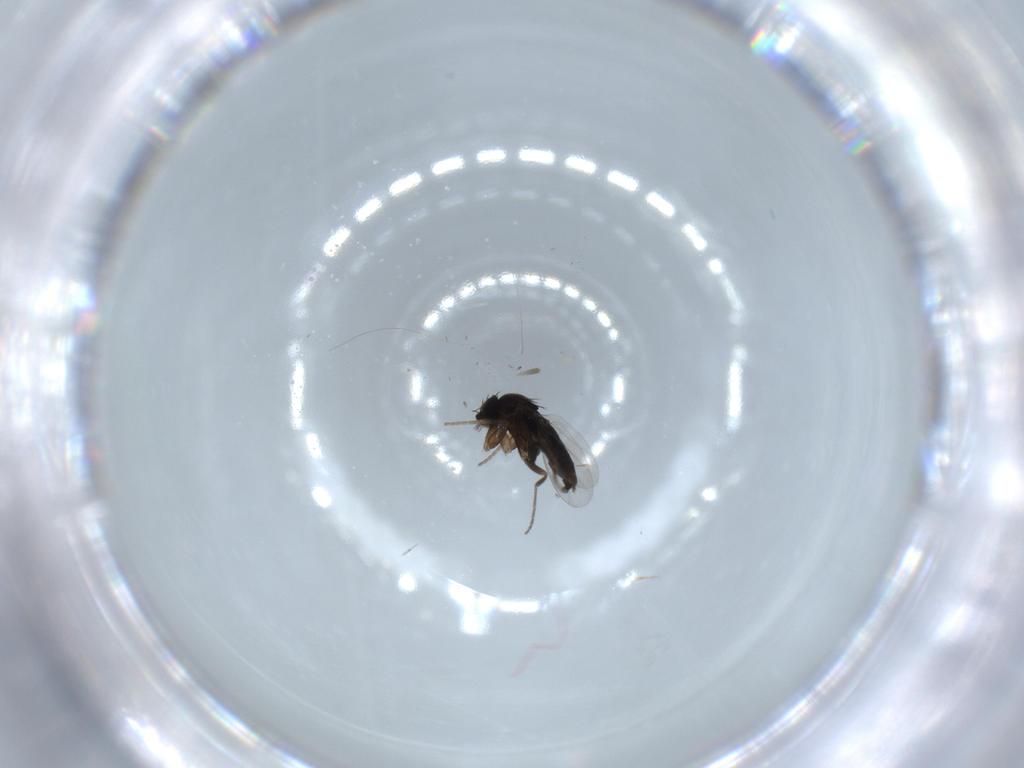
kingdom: Animalia
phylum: Arthropoda
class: Insecta
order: Diptera
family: Phoridae
